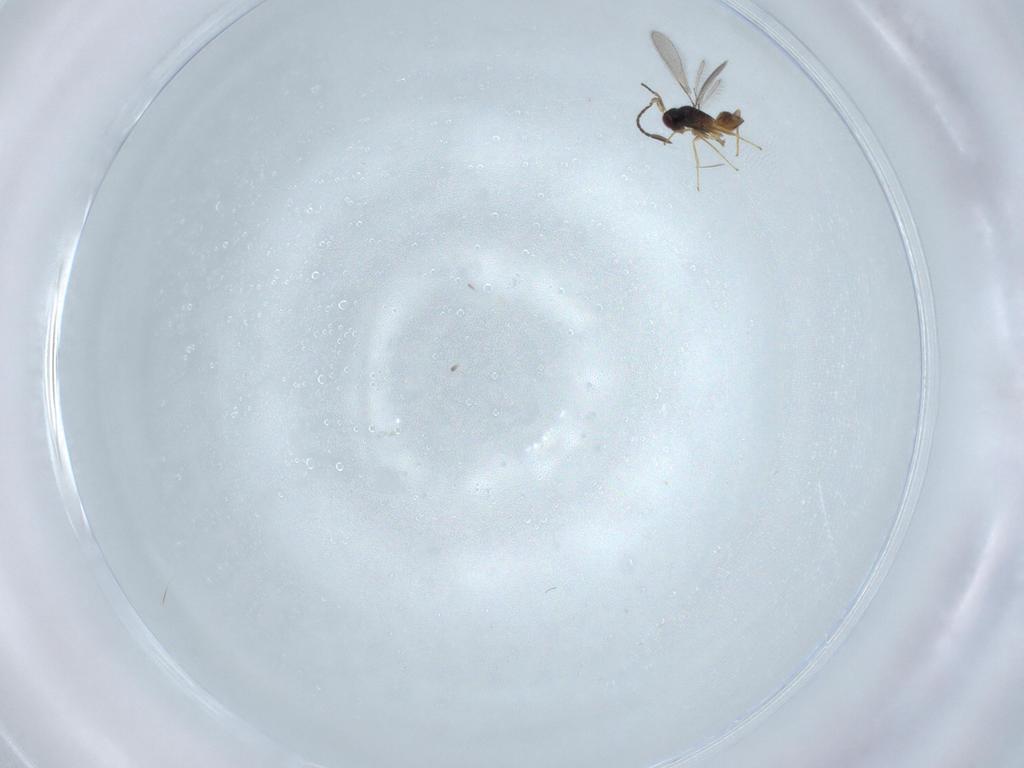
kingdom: Animalia
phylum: Arthropoda
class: Insecta
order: Hymenoptera
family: Mymaridae
